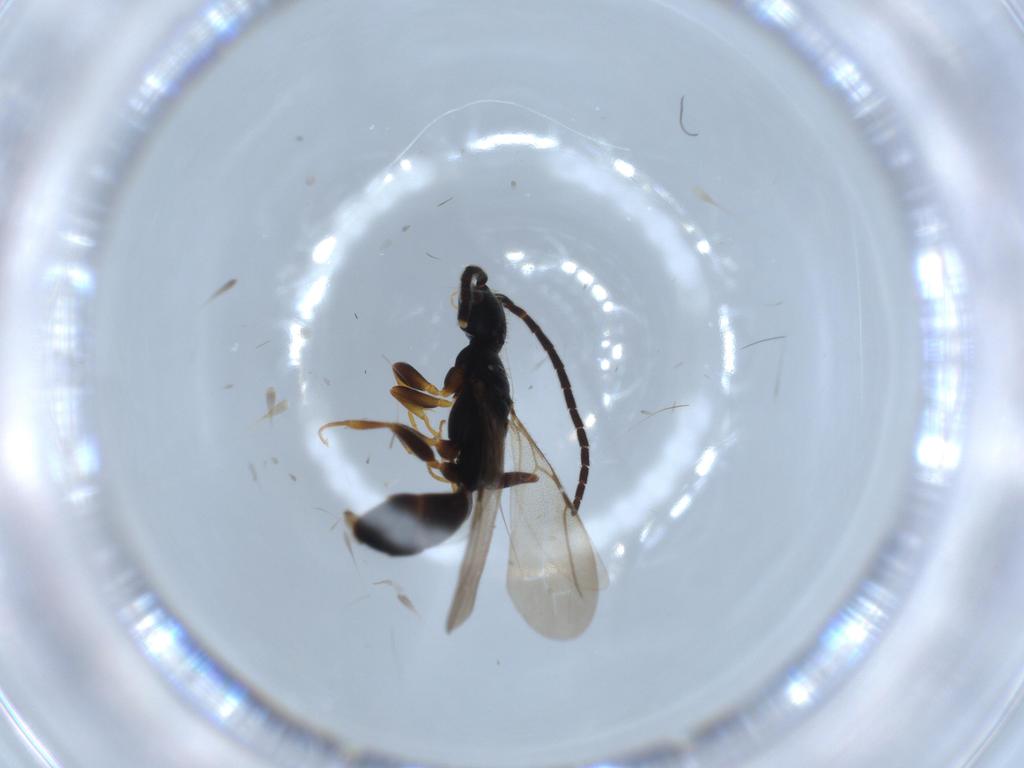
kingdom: Animalia
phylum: Arthropoda
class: Insecta
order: Hymenoptera
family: Bethylidae
